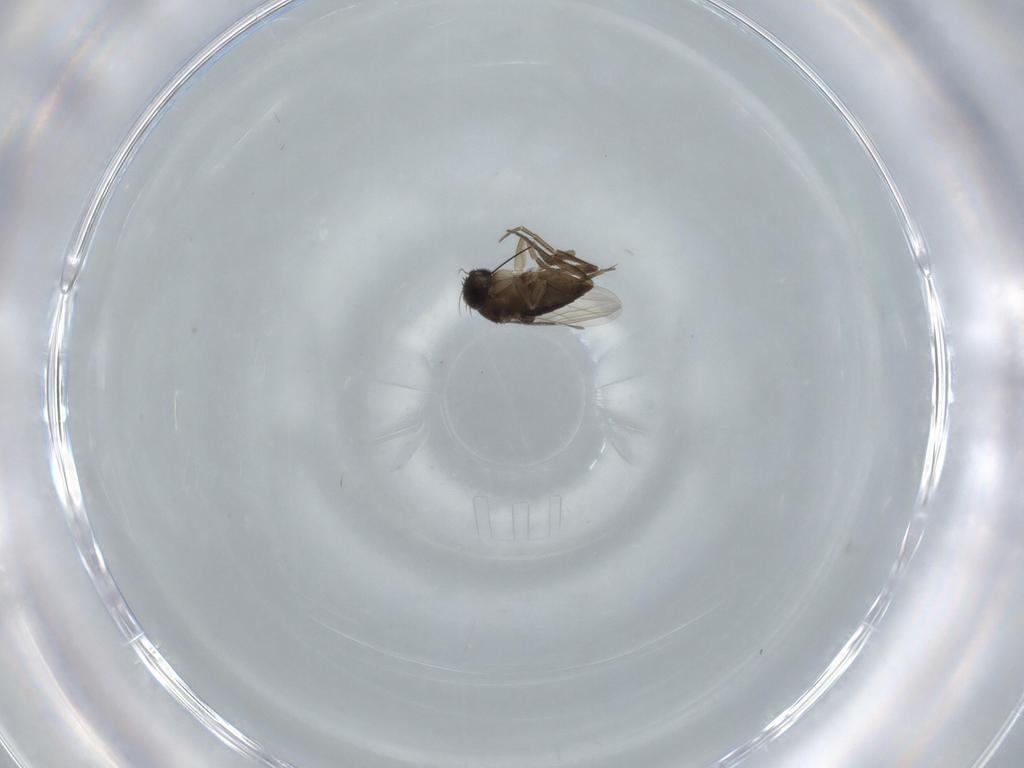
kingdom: Animalia
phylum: Arthropoda
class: Insecta
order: Diptera
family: Phoridae
